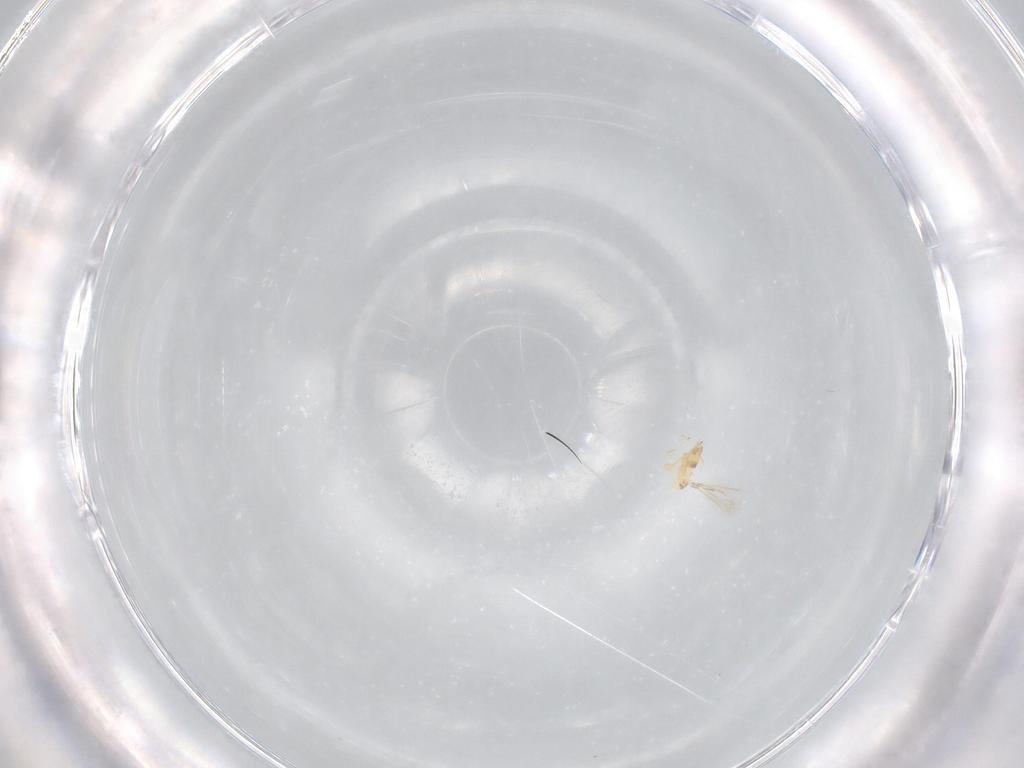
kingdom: Animalia
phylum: Arthropoda
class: Insecta
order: Hymenoptera
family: Mymaridae
